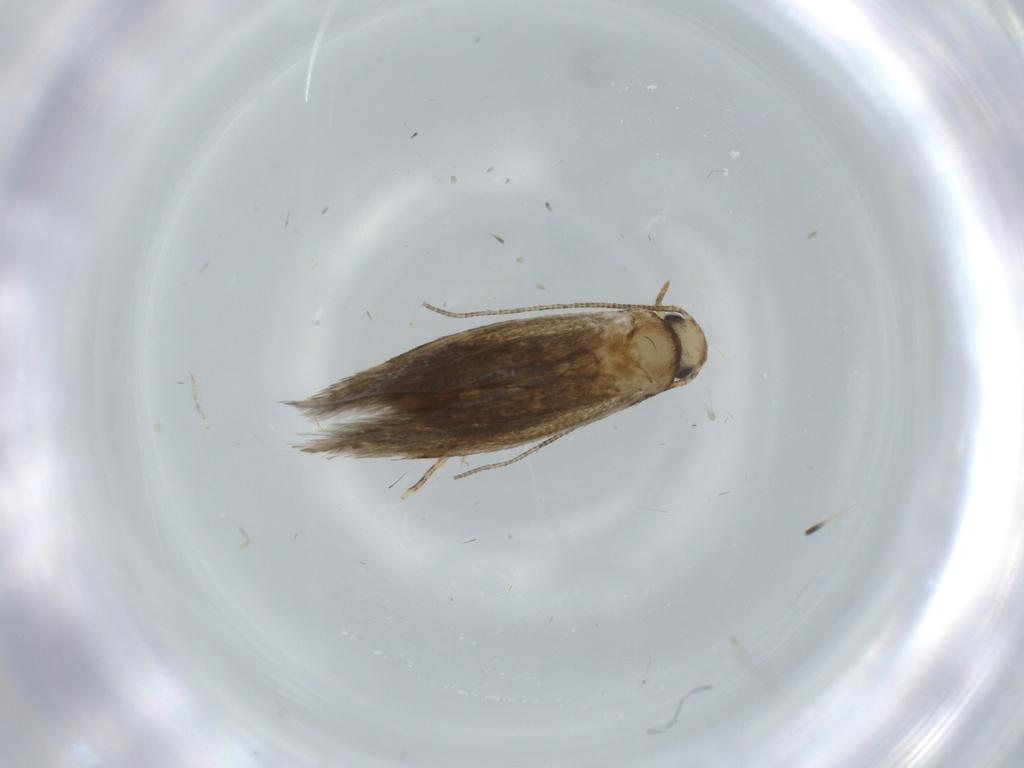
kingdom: Animalia
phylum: Arthropoda
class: Insecta
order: Lepidoptera
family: Tineidae
